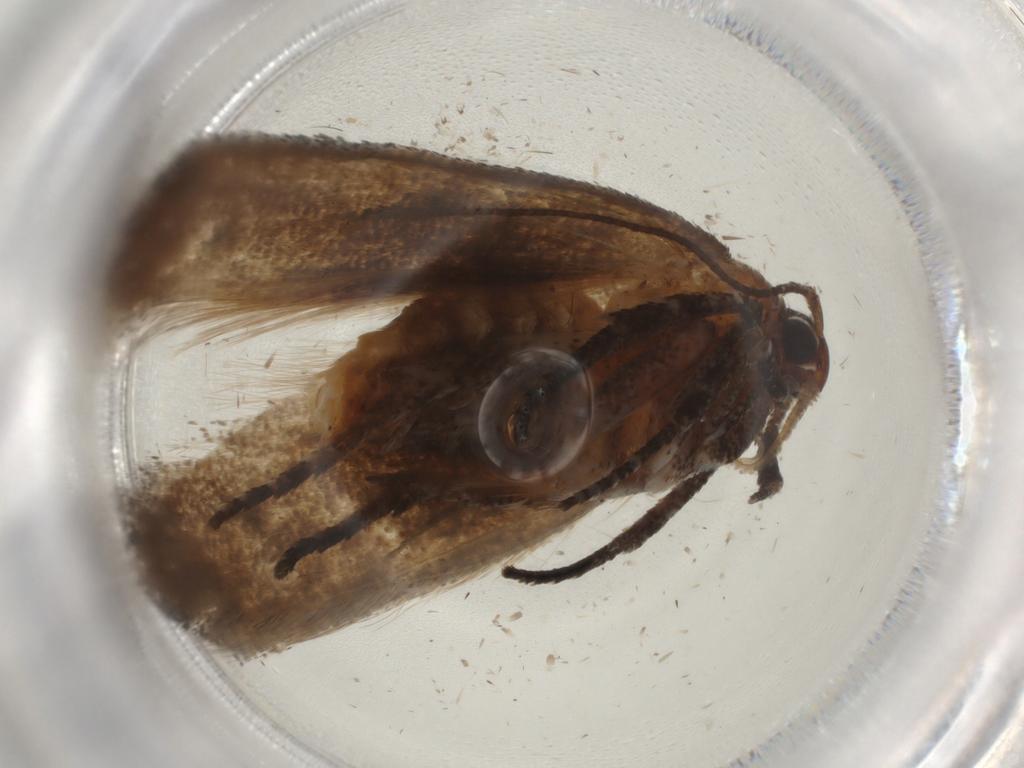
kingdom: Animalia
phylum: Arthropoda
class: Insecta
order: Lepidoptera
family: Cosmopterigidae
